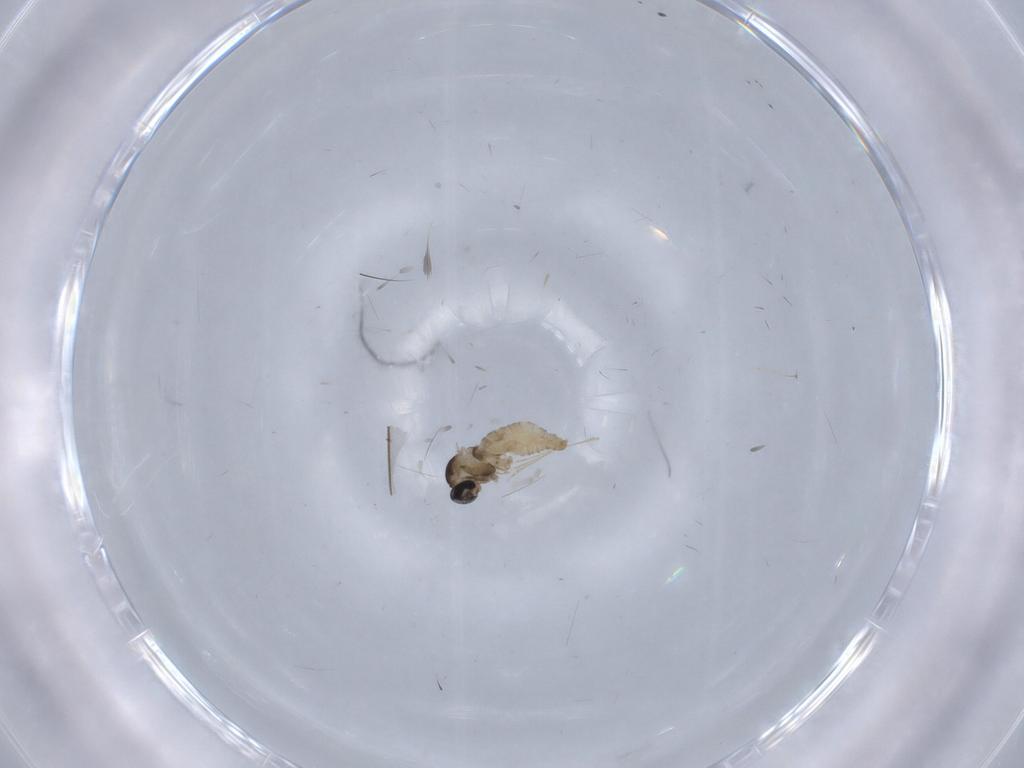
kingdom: Animalia
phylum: Arthropoda
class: Insecta
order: Diptera
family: Cecidomyiidae
